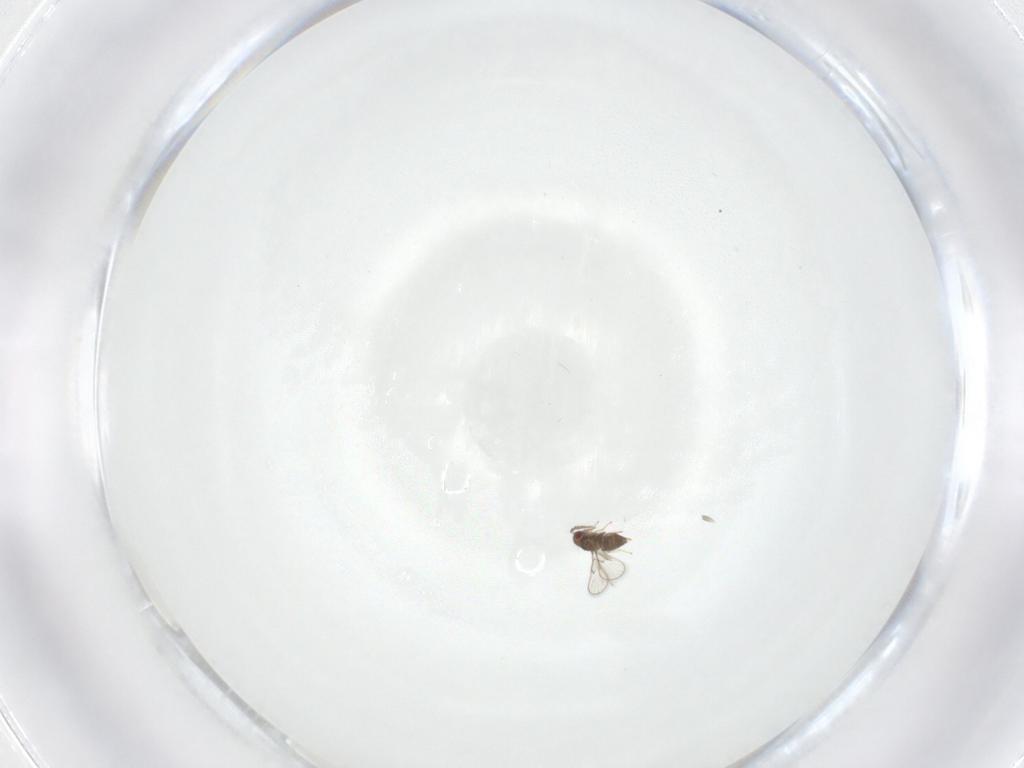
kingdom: Animalia
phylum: Arthropoda
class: Insecta
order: Hymenoptera
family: Trichogrammatidae
